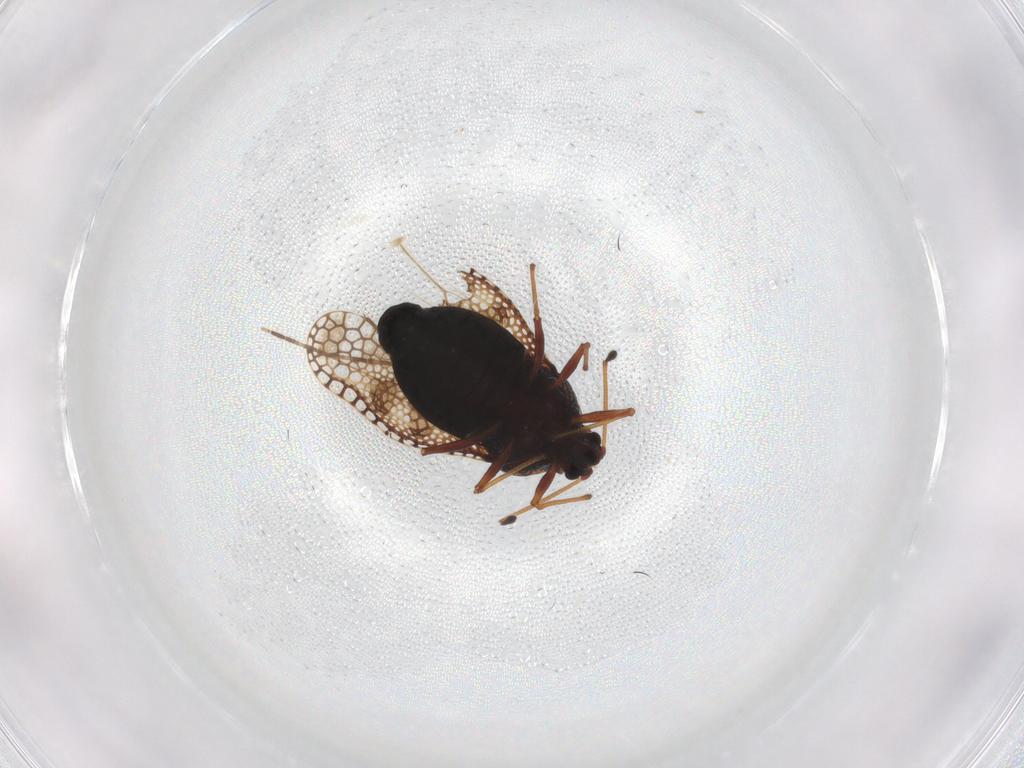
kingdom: Animalia
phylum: Arthropoda
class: Insecta
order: Hemiptera
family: Tingidae
